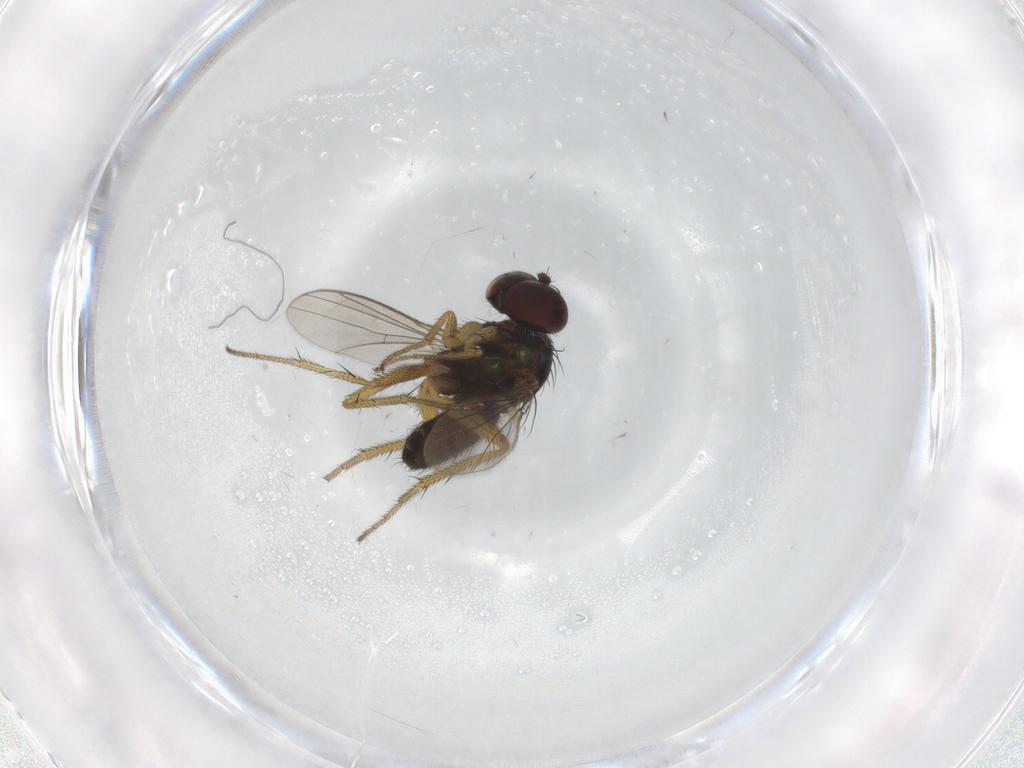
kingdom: Animalia
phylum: Arthropoda
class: Insecta
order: Diptera
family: Dolichopodidae
